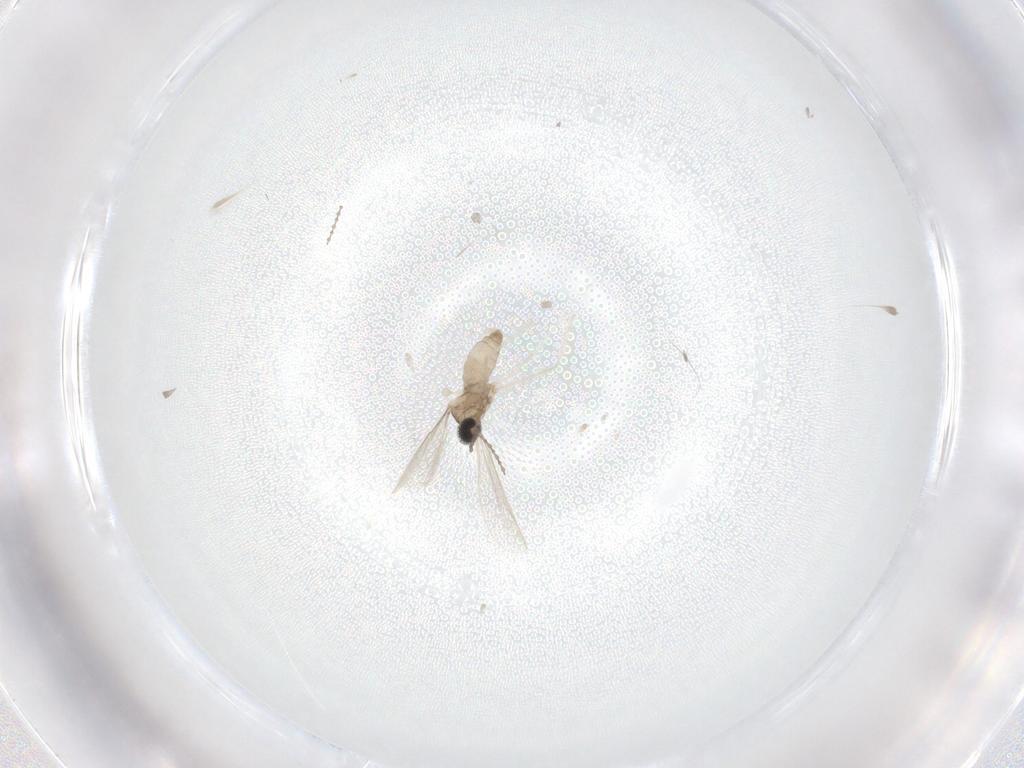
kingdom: Animalia
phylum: Arthropoda
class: Insecta
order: Diptera
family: Cecidomyiidae
